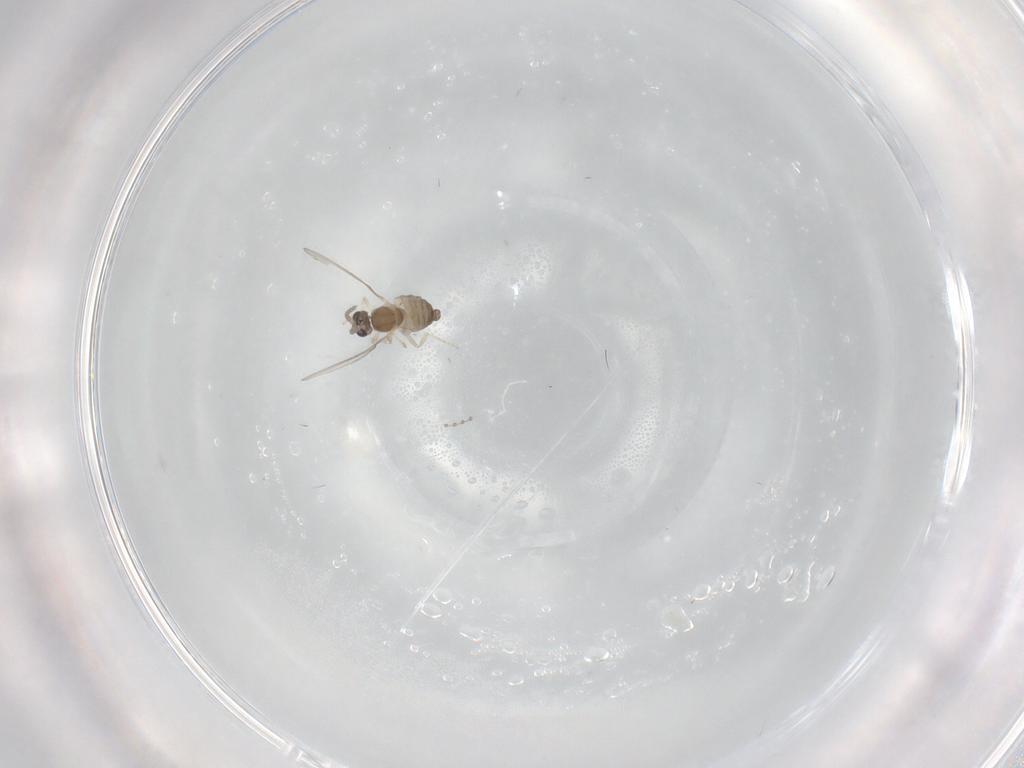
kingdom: Animalia
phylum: Arthropoda
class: Insecta
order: Diptera
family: Cecidomyiidae
